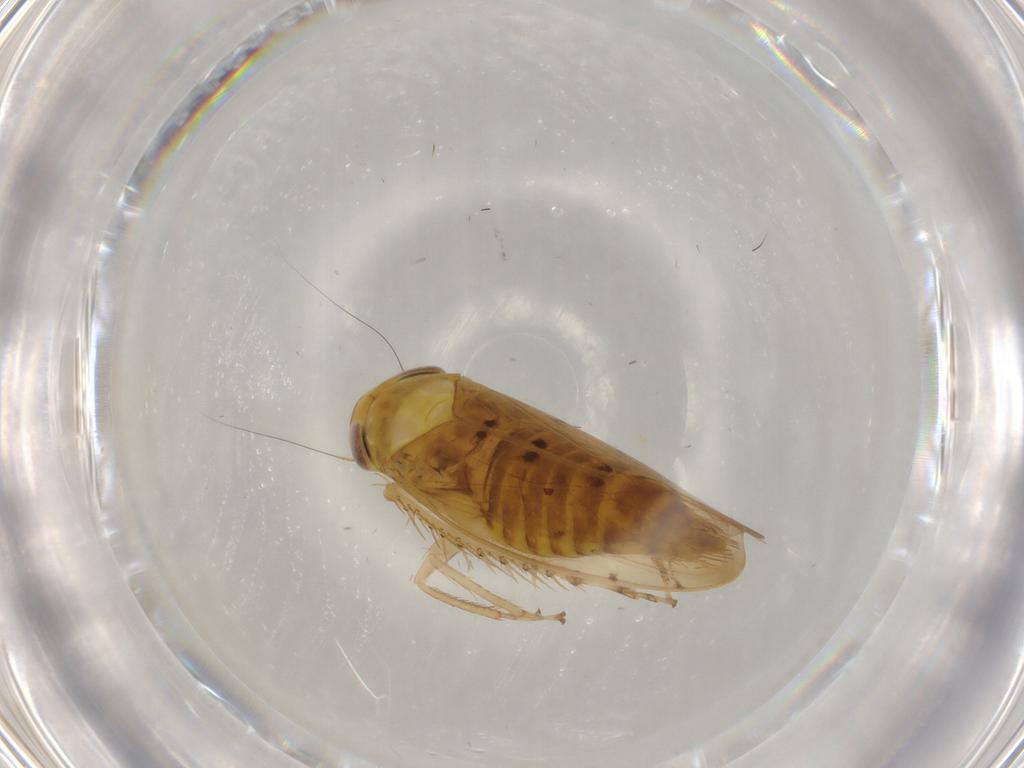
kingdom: Animalia
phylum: Arthropoda
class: Insecta
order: Hemiptera
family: Cicadellidae
